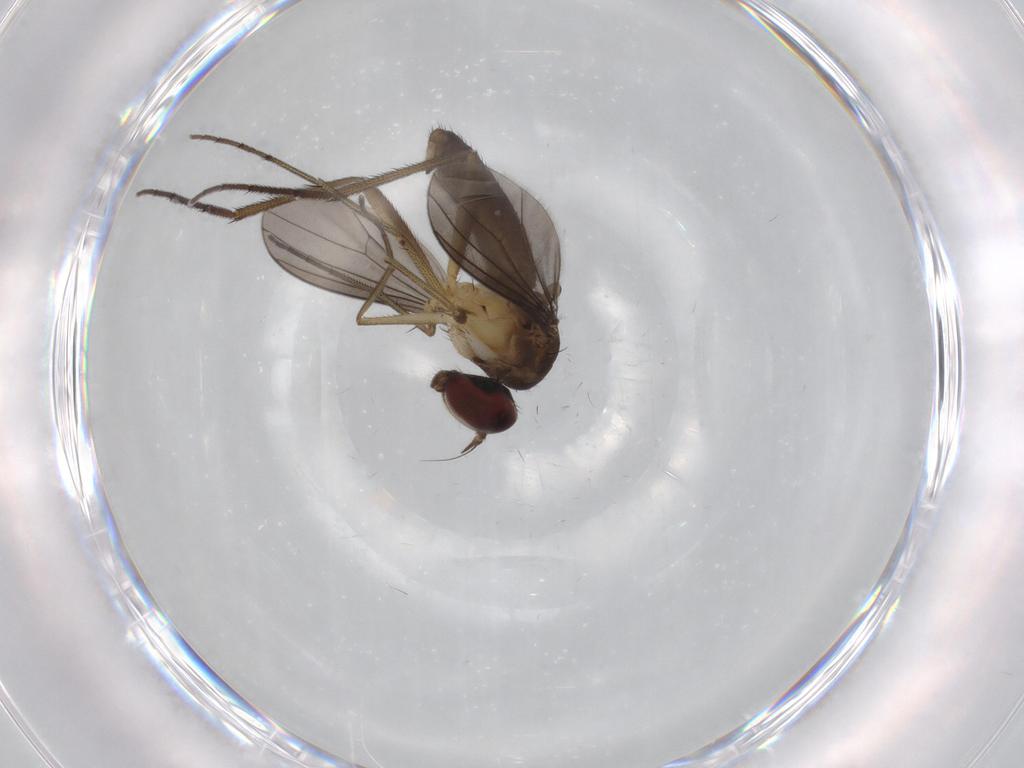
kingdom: Animalia
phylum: Arthropoda
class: Insecta
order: Diptera
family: Dolichopodidae
